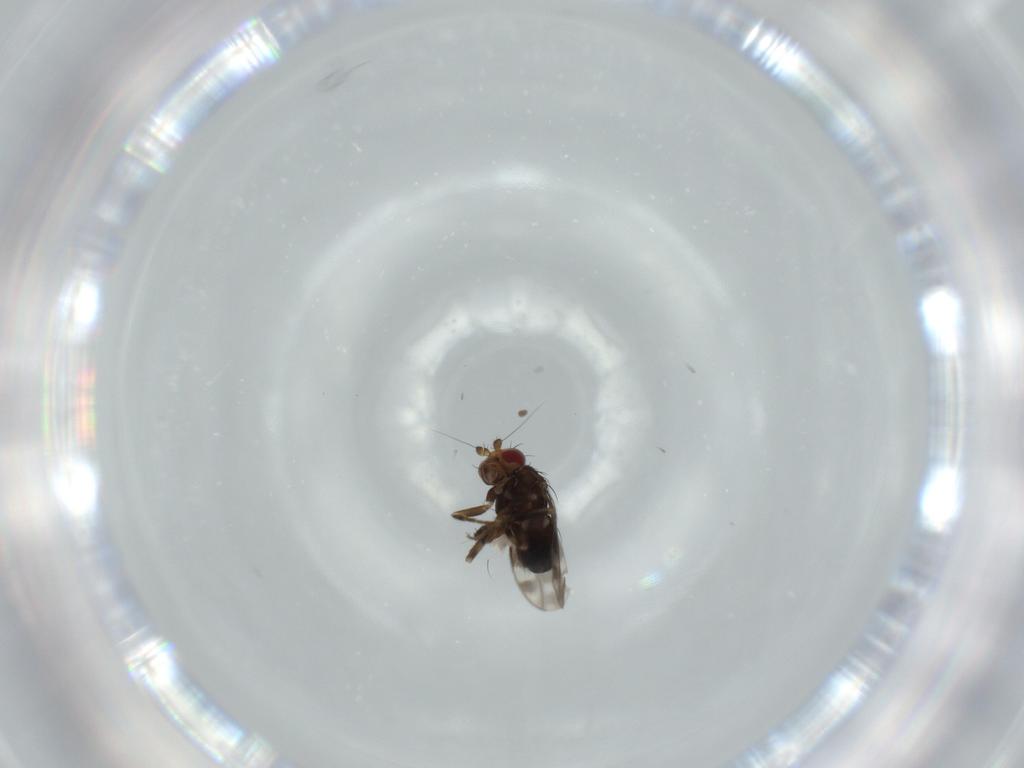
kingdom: Animalia
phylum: Arthropoda
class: Insecta
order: Diptera
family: Sphaeroceridae
